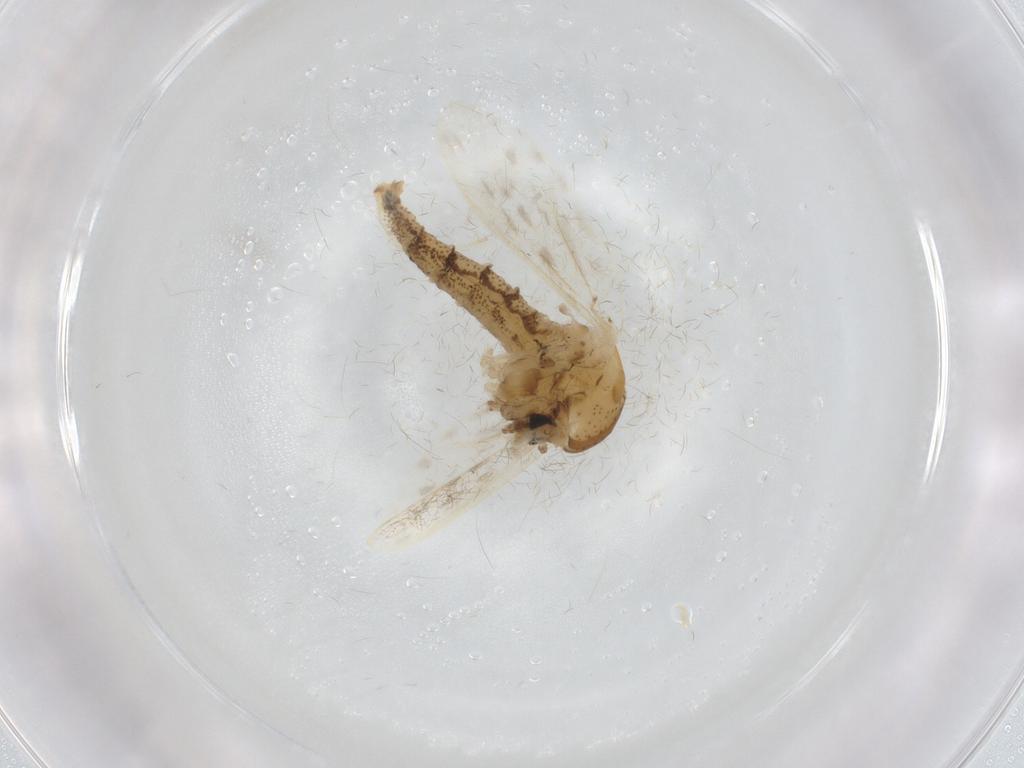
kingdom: Animalia
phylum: Arthropoda
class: Insecta
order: Diptera
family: Chaoboridae
